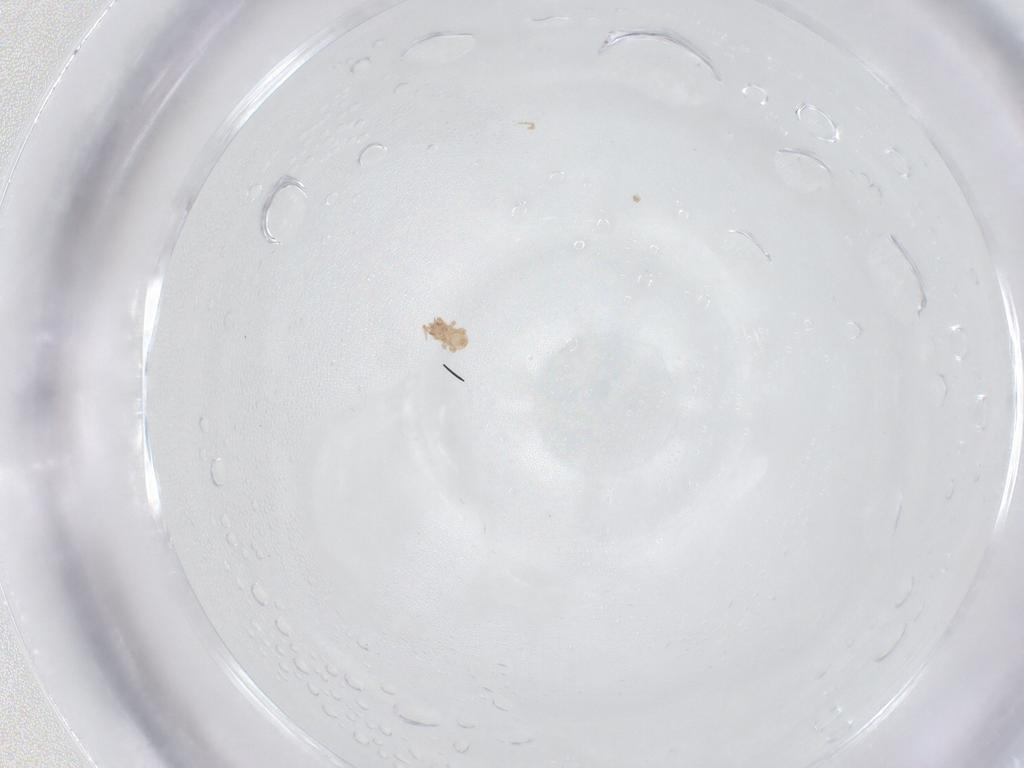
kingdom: Animalia
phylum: Arthropoda
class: Arachnida
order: Mesostigmata
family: Ascidae
